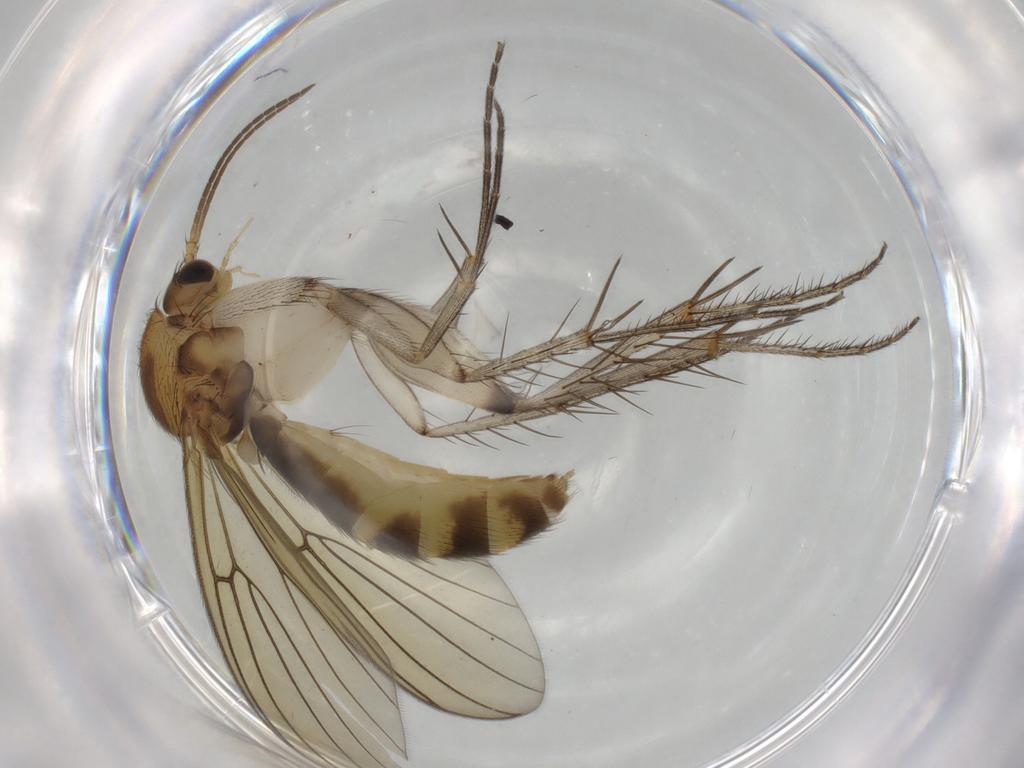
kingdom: Animalia
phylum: Arthropoda
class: Insecta
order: Diptera
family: Mycetophilidae
